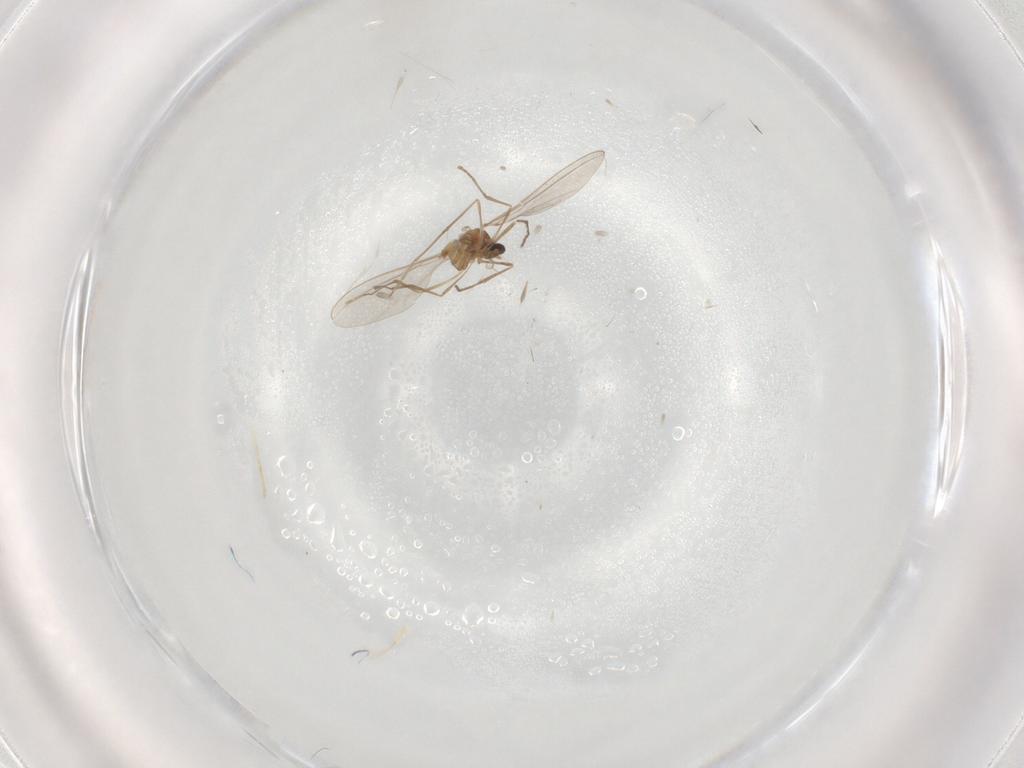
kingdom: Animalia
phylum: Arthropoda
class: Insecta
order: Diptera
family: Cecidomyiidae
